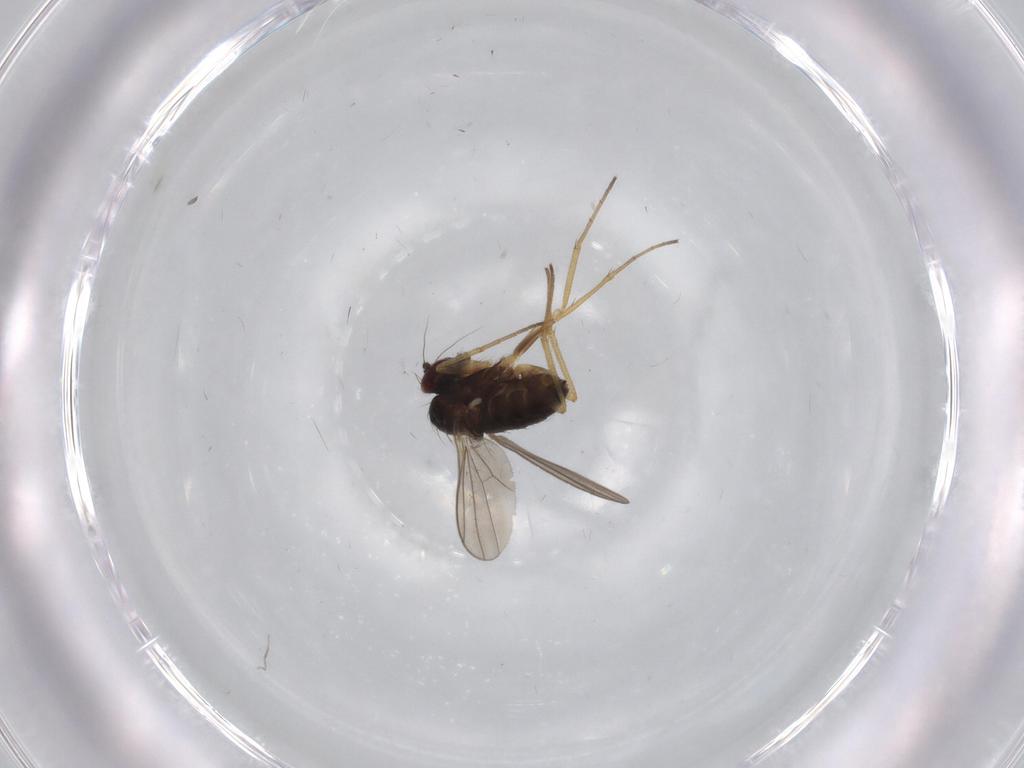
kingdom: Animalia
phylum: Arthropoda
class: Insecta
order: Diptera
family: Dolichopodidae
